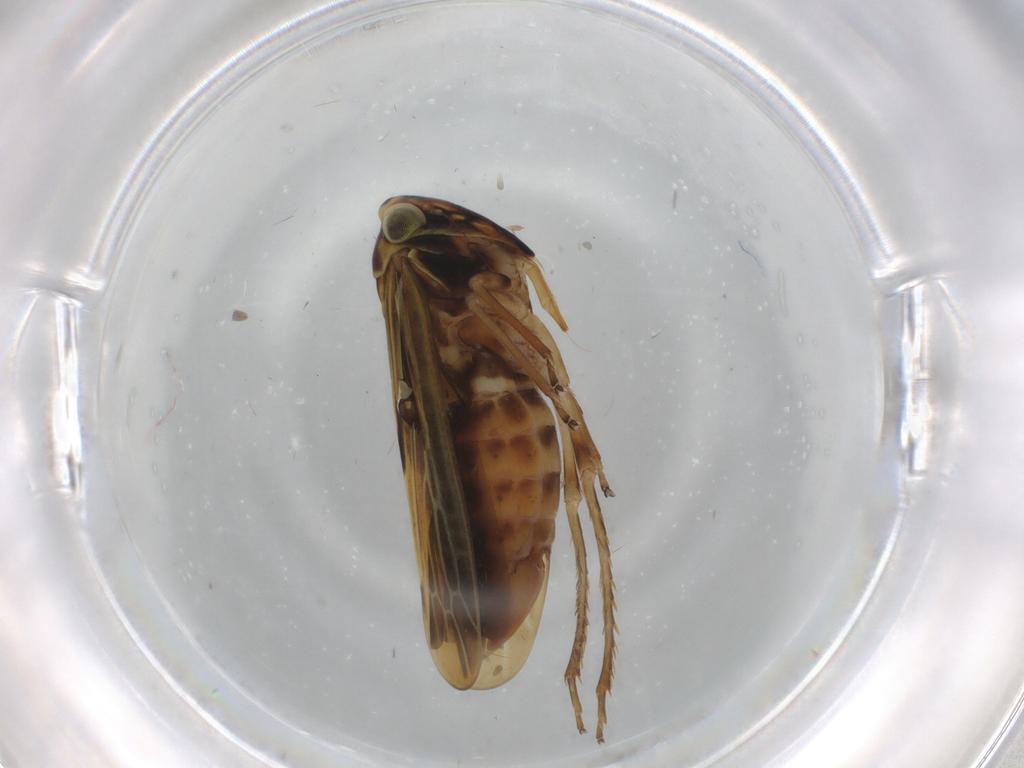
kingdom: Animalia
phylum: Arthropoda
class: Insecta
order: Hemiptera
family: Cicadellidae
